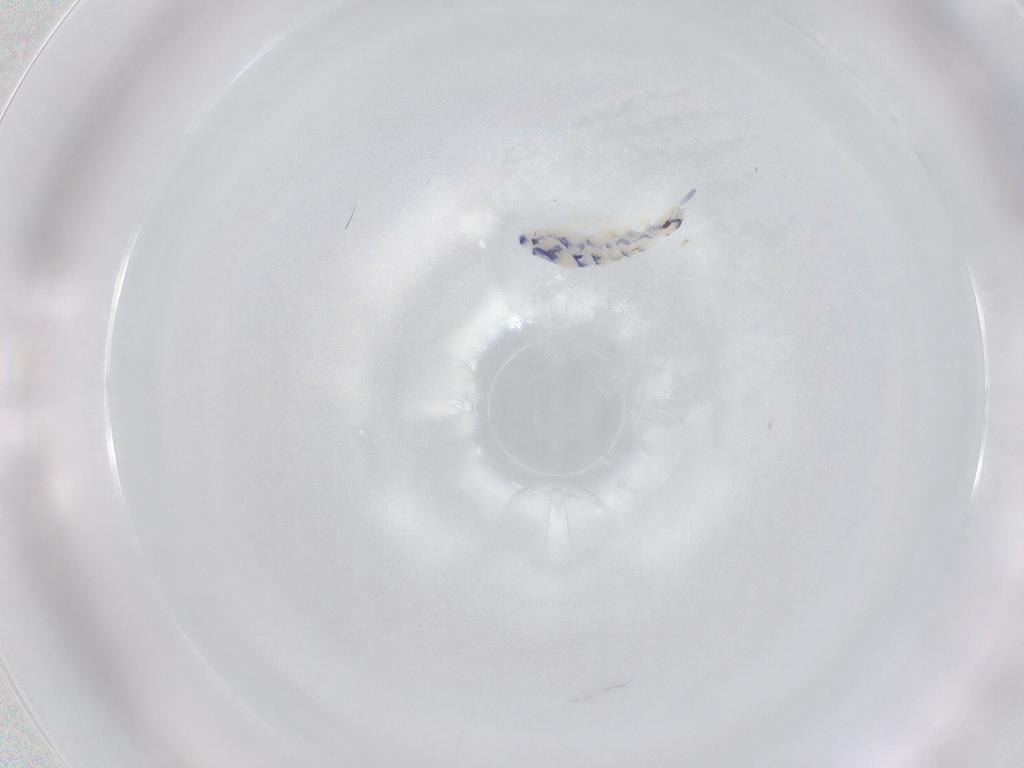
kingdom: Animalia
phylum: Arthropoda
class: Collembola
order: Entomobryomorpha
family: Entomobryidae
